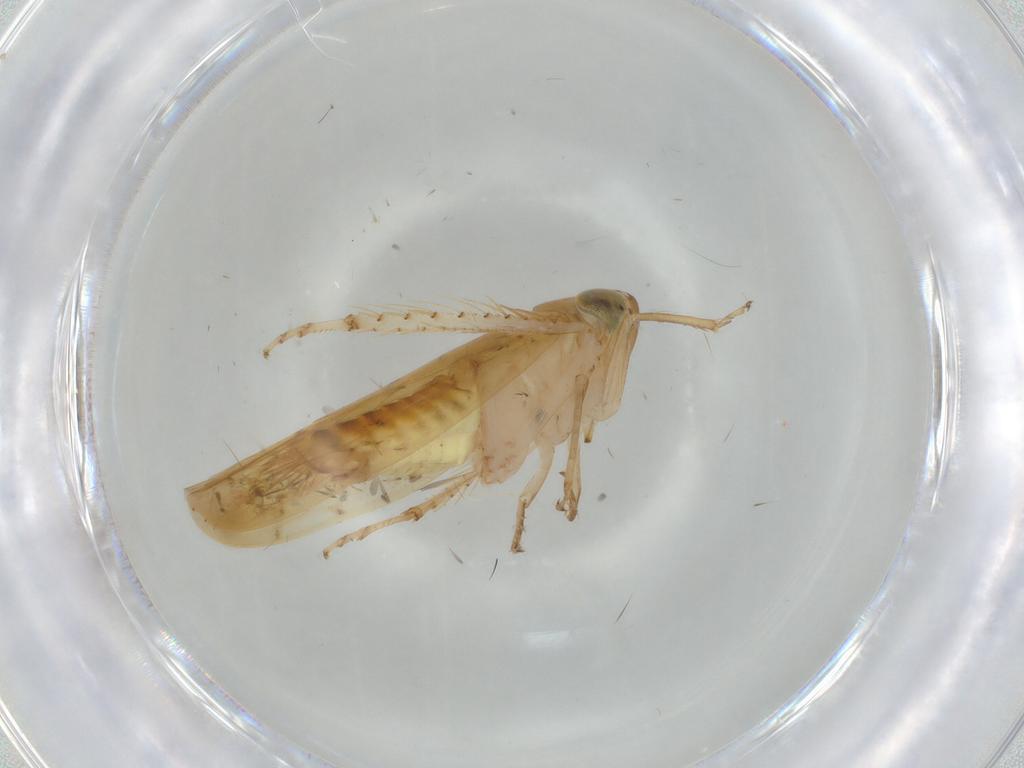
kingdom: Animalia
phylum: Arthropoda
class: Insecta
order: Hemiptera
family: Cicadellidae
